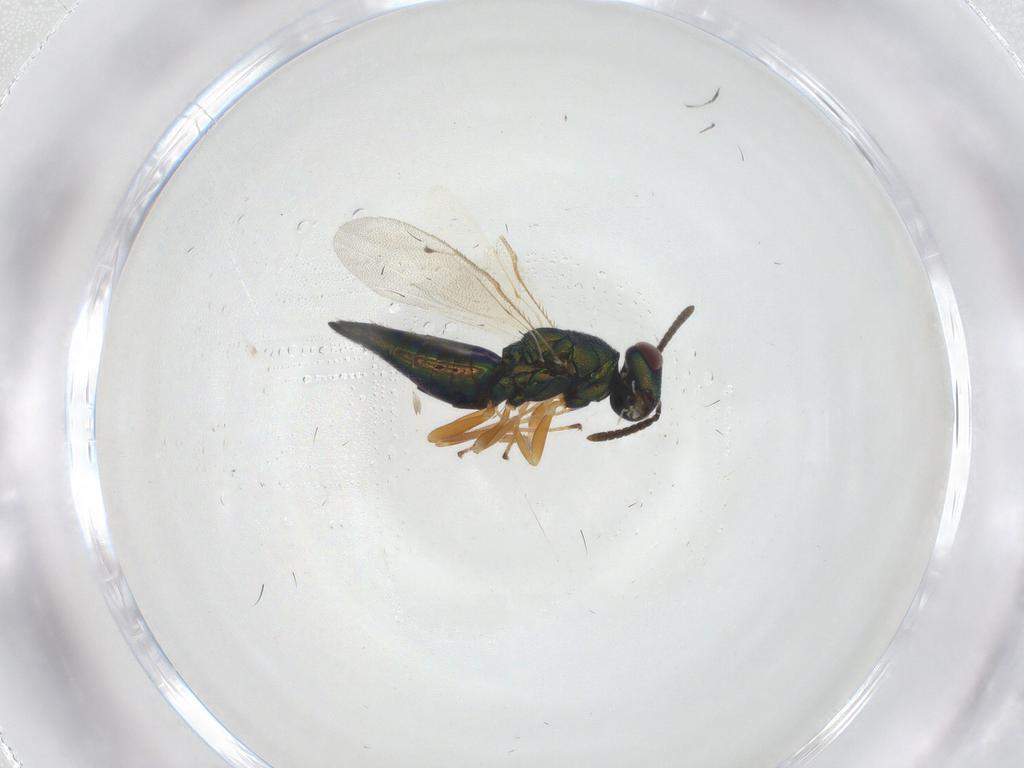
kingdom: Animalia
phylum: Arthropoda
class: Insecta
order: Hymenoptera
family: Pteromalidae
